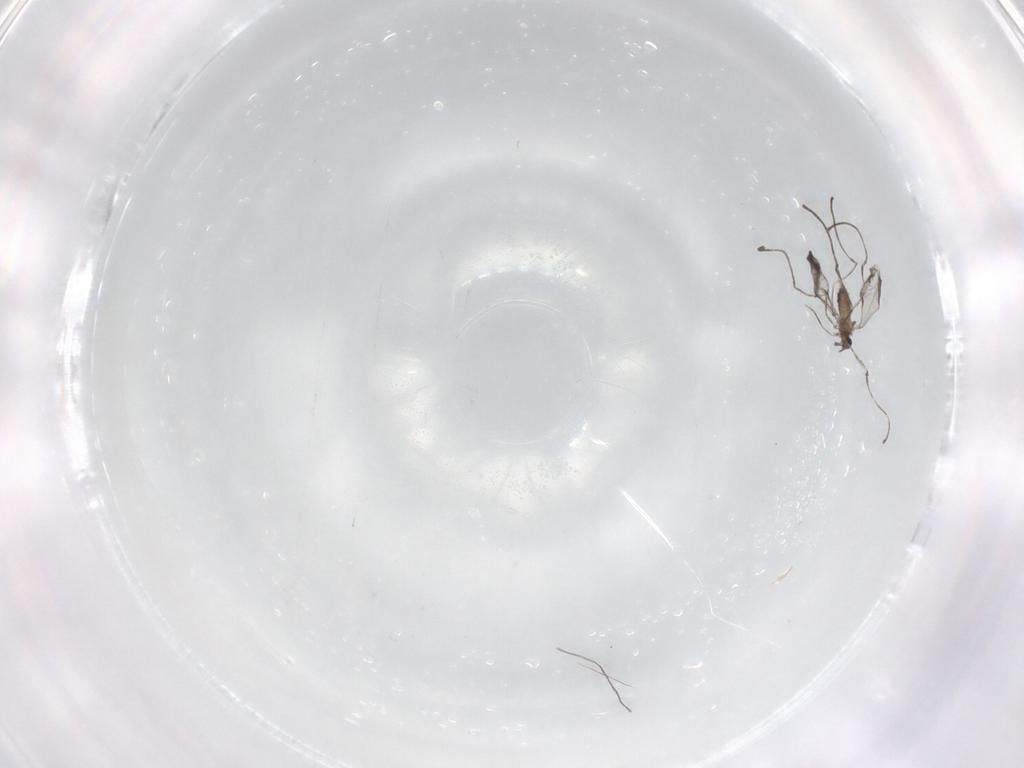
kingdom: Animalia
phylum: Arthropoda
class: Insecta
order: Diptera
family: Cecidomyiidae
